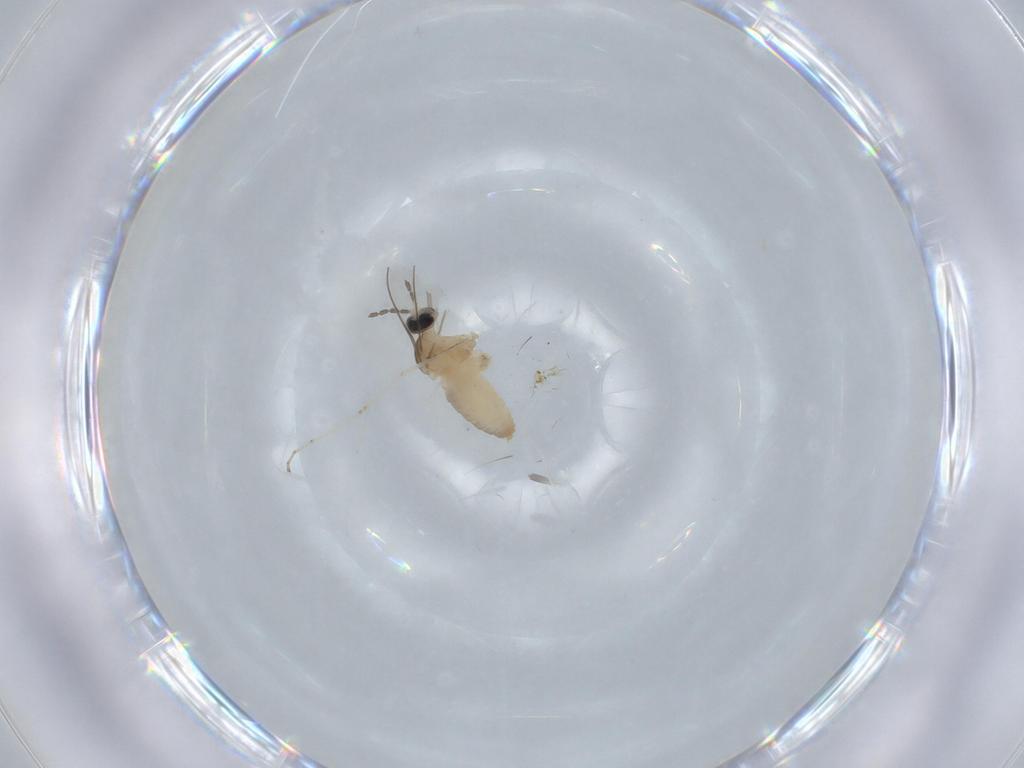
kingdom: Animalia
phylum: Arthropoda
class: Insecta
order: Diptera
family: Cecidomyiidae
